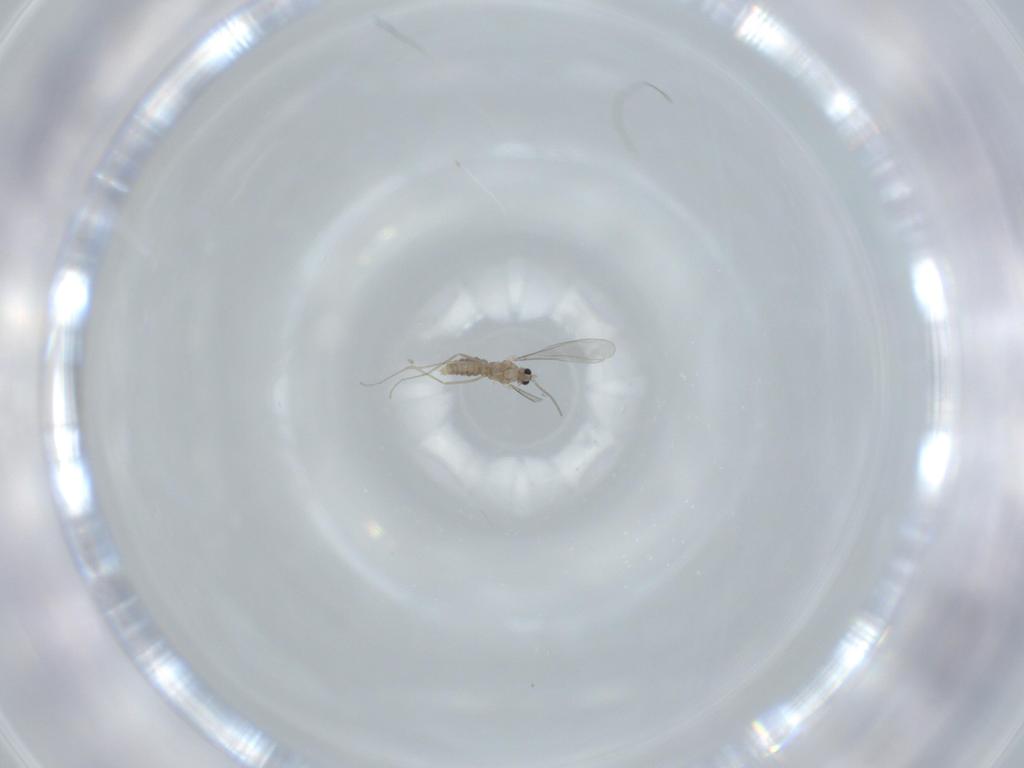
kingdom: Animalia
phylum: Arthropoda
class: Insecta
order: Diptera
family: Cecidomyiidae
